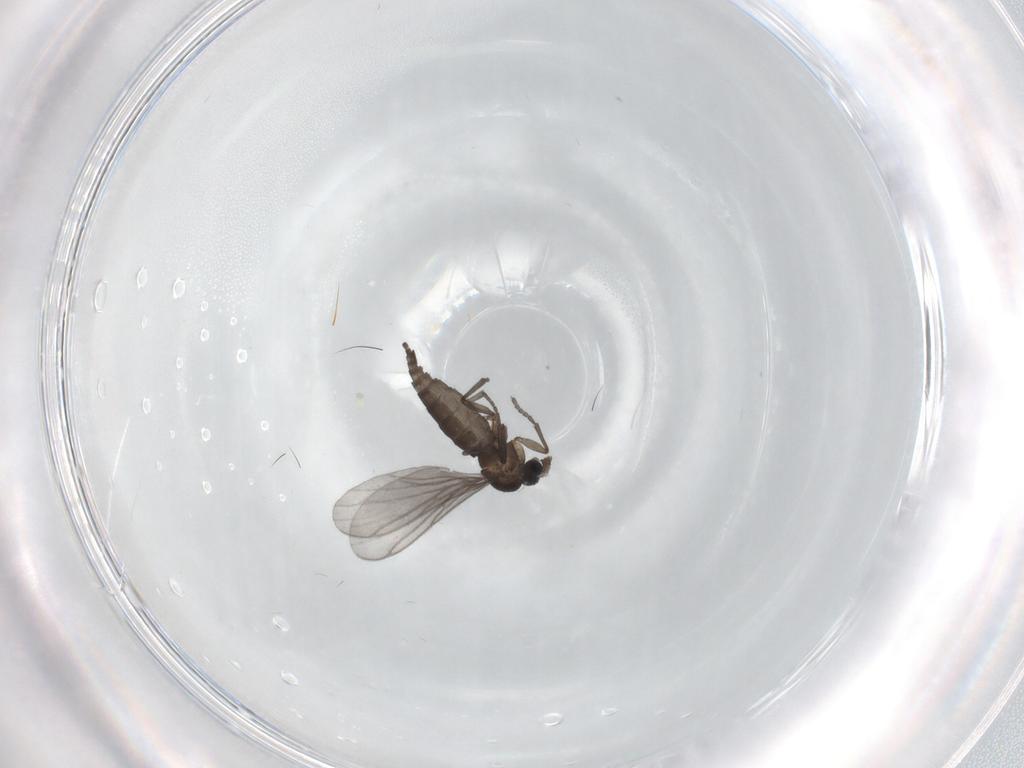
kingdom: Animalia
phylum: Arthropoda
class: Insecta
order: Diptera
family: Sciaridae
